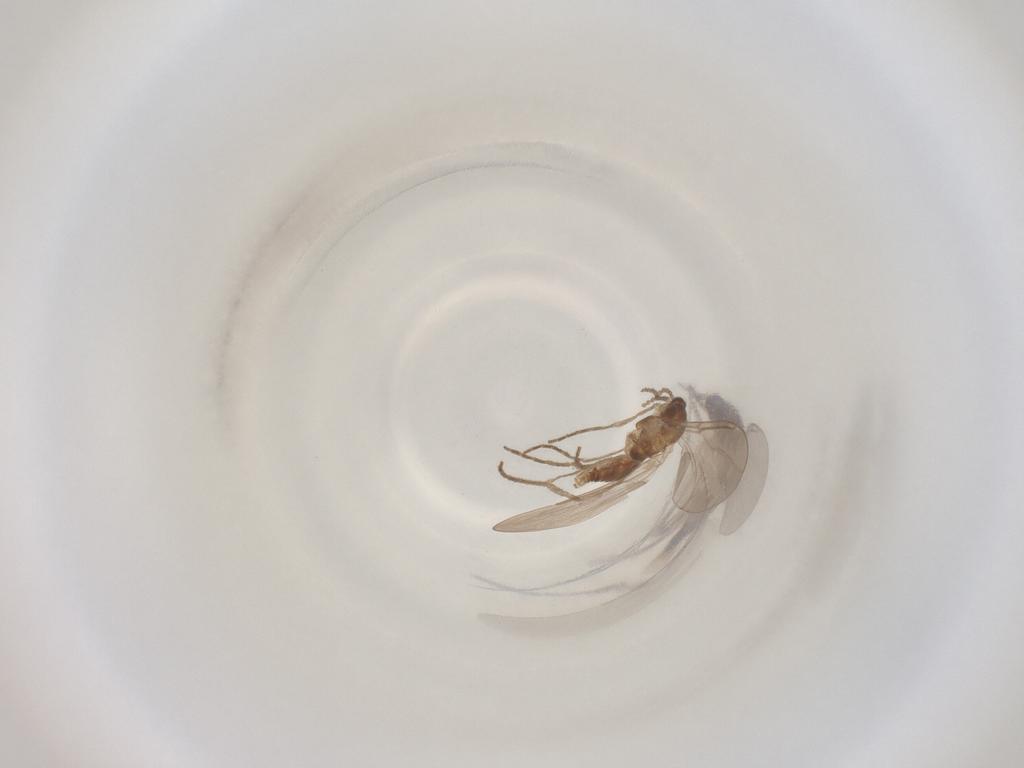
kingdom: Animalia
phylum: Arthropoda
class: Insecta
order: Diptera
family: Cecidomyiidae
